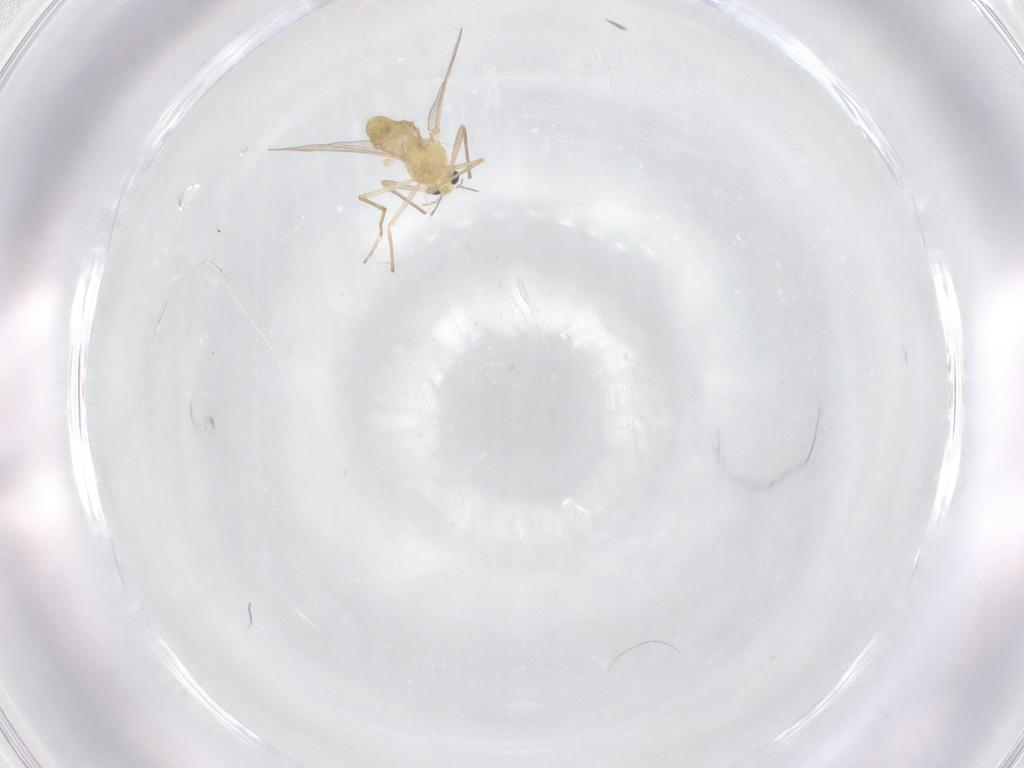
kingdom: Animalia
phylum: Arthropoda
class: Insecta
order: Diptera
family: Chironomidae
